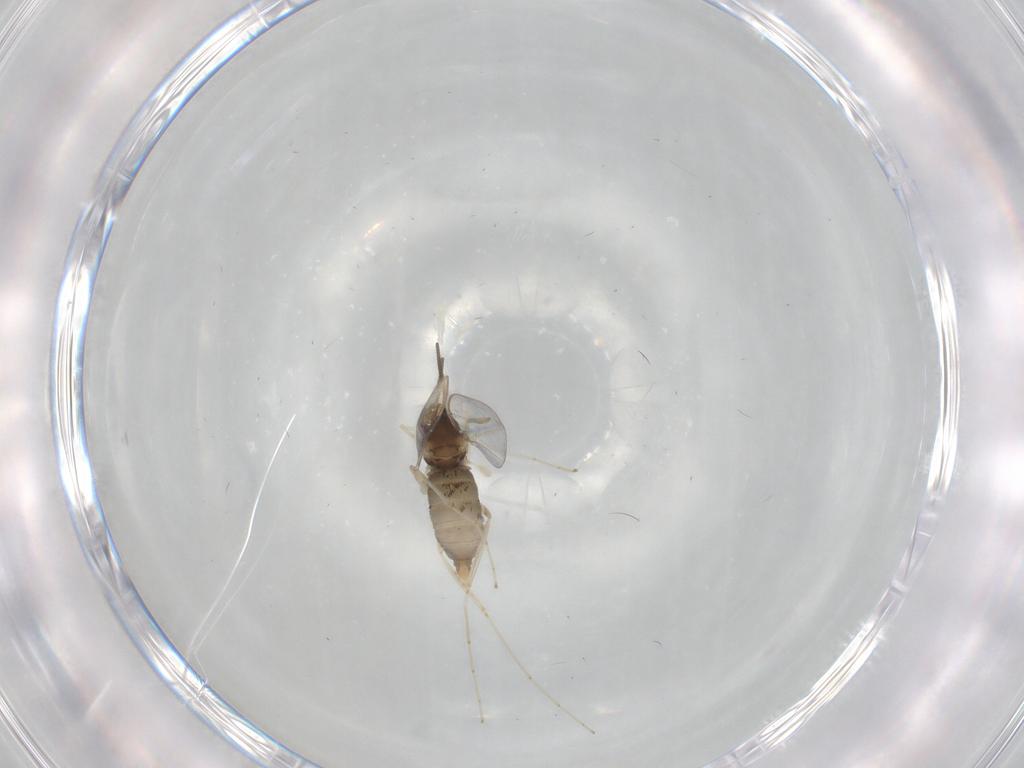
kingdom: Animalia
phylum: Arthropoda
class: Insecta
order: Diptera
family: Cecidomyiidae
